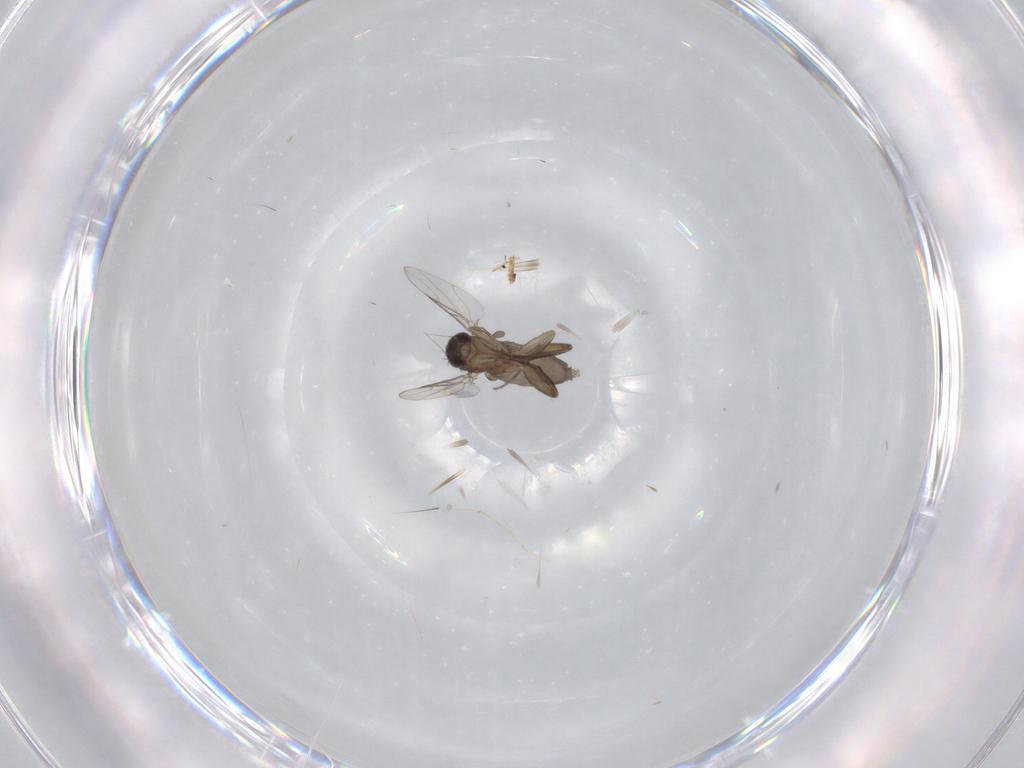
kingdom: Animalia
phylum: Arthropoda
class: Insecta
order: Diptera
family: Phoridae
